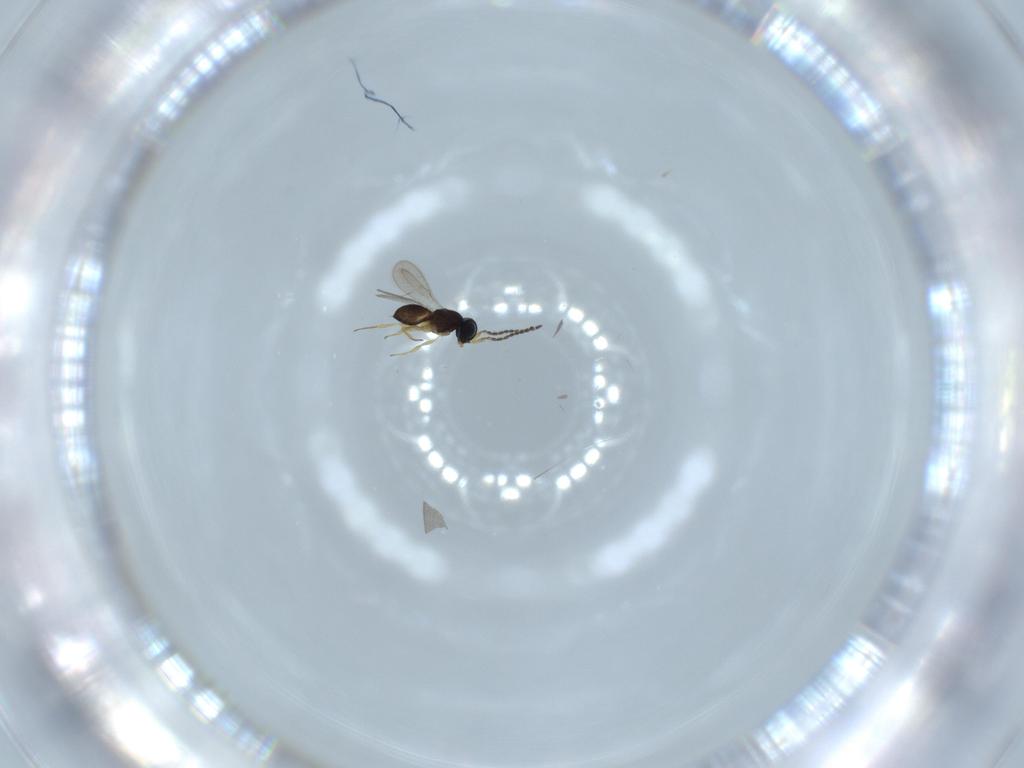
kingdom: Animalia
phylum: Arthropoda
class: Insecta
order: Hymenoptera
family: Scelionidae
